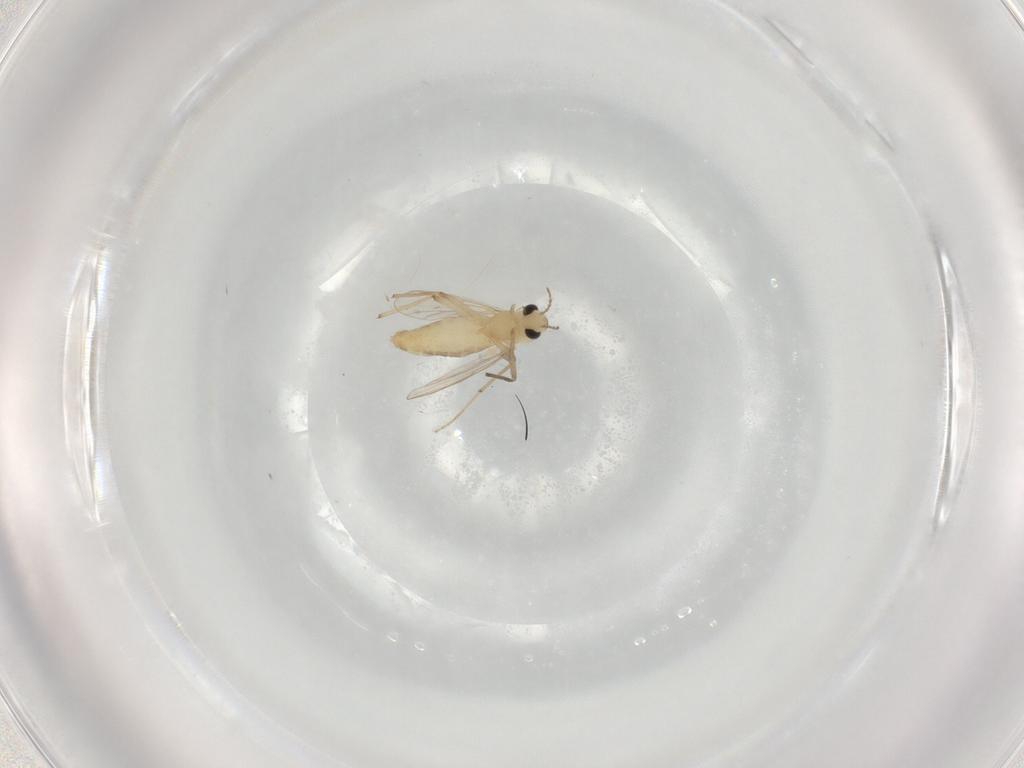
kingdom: Animalia
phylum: Arthropoda
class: Insecta
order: Diptera
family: Chironomidae
